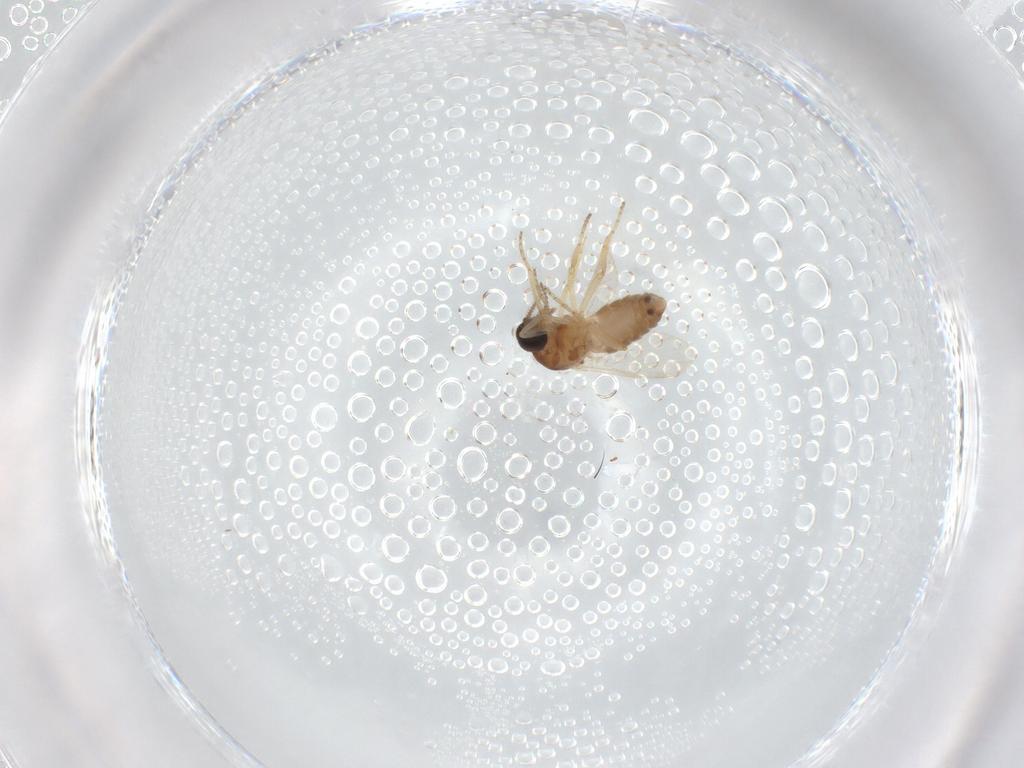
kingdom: Animalia
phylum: Arthropoda
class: Insecta
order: Diptera
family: Ceratopogonidae
